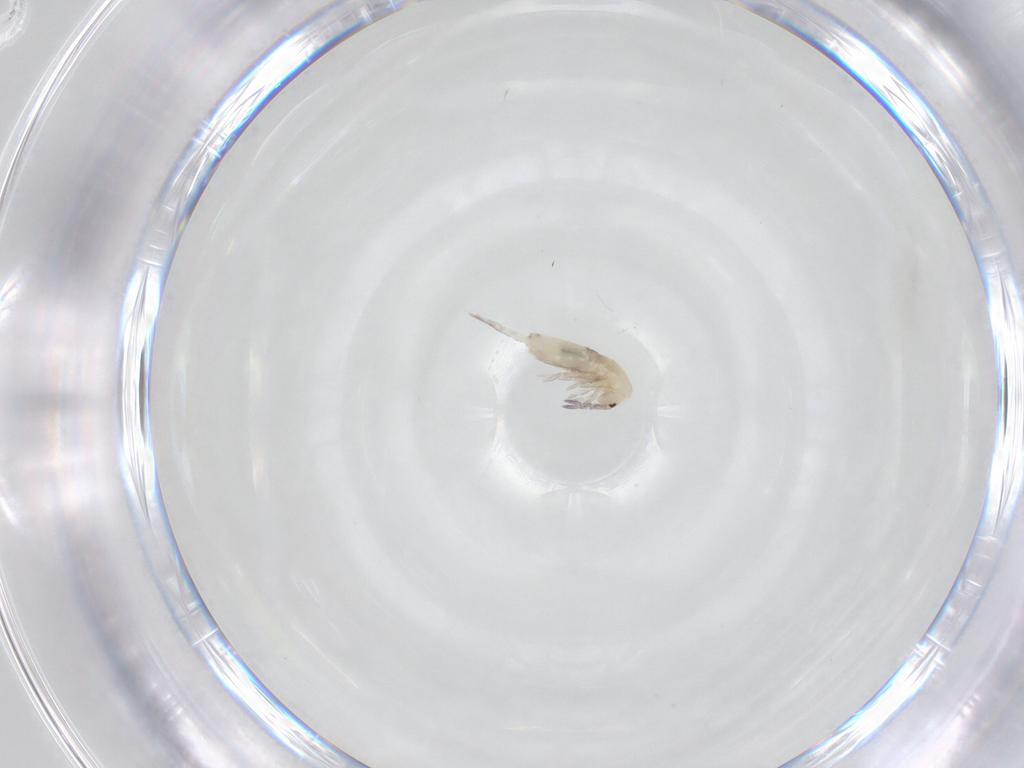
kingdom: Animalia
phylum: Arthropoda
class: Collembola
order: Entomobryomorpha
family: Entomobryidae
